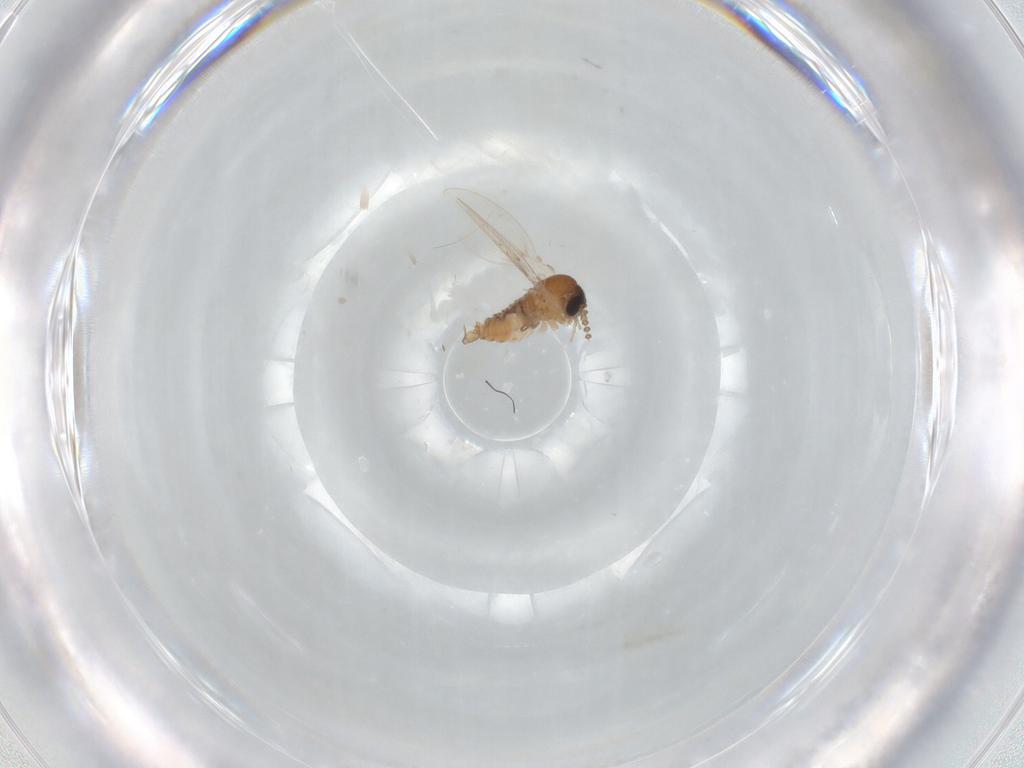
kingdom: Animalia
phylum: Arthropoda
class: Insecta
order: Diptera
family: Psychodidae
